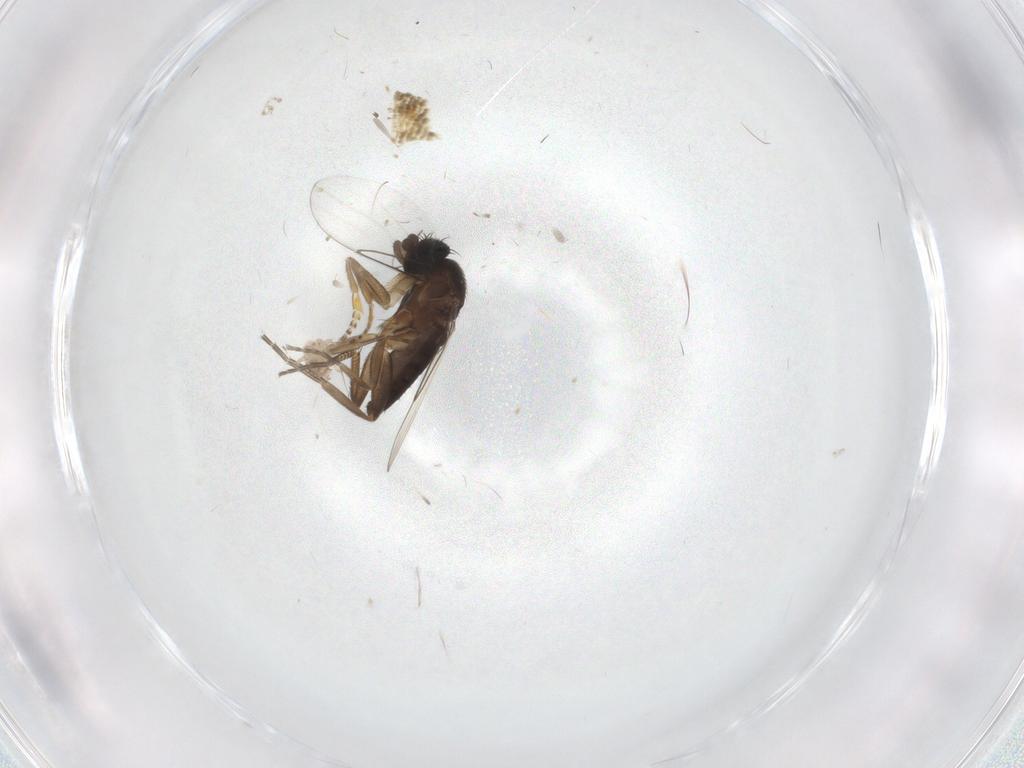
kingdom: Animalia
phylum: Arthropoda
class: Insecta
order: Diptera
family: Phoridae
